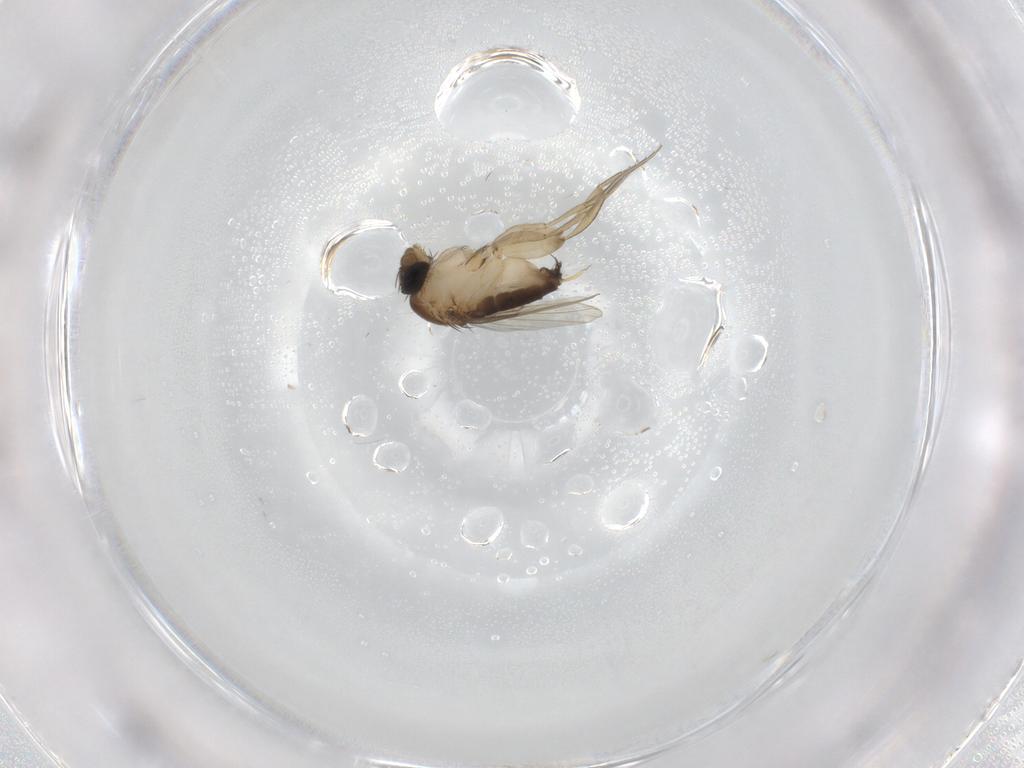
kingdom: Animalia
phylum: Arthropoda
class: Insecta
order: Diptera
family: Phoridae
